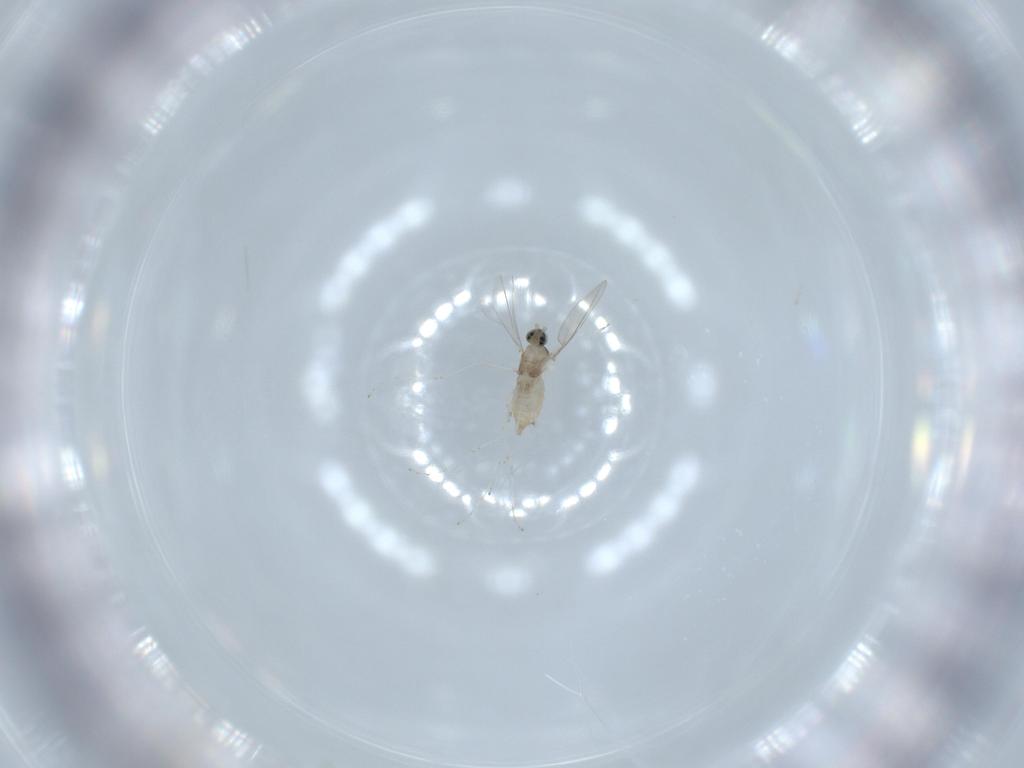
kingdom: Animalia
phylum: Arthropoda
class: Insecta
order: Diptera
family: Cecidomyiidae
